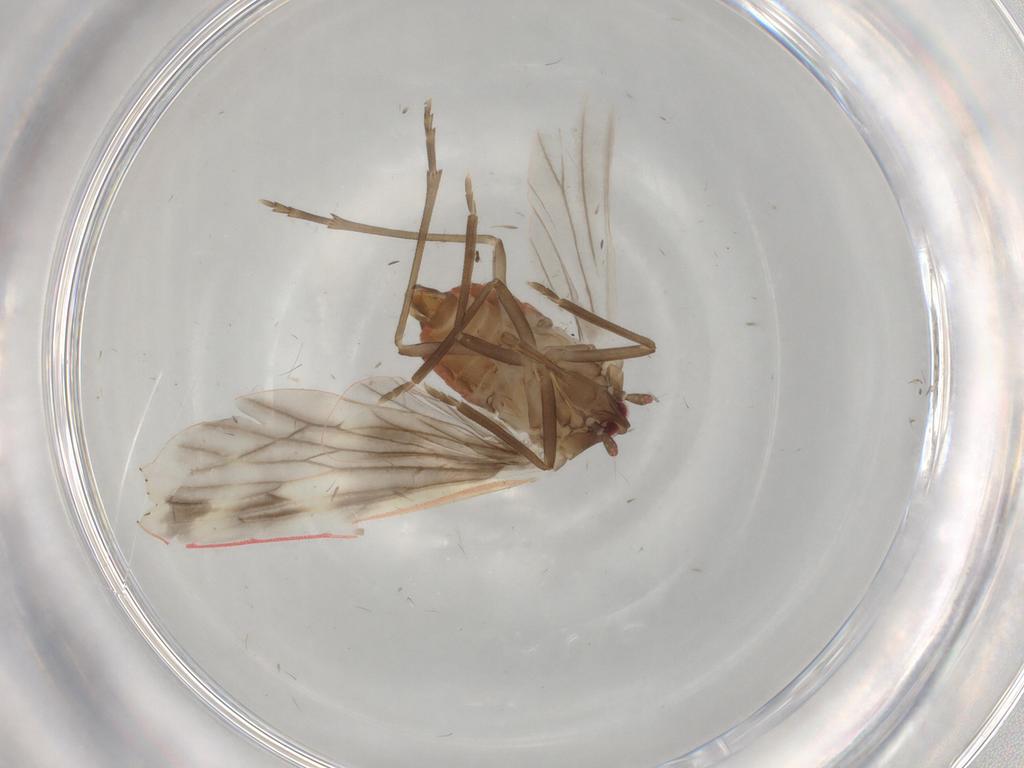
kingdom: Animalia
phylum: Arthropoda
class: Insecta
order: Hemiptera
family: Derbidae
